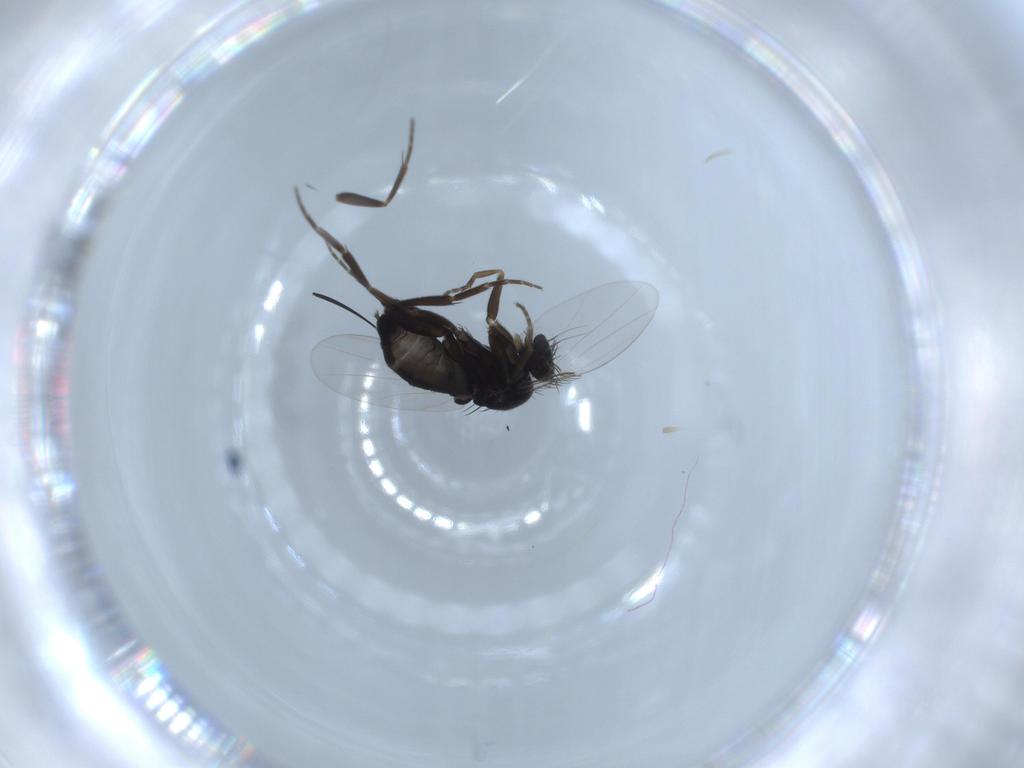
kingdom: Animalia
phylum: Arthropoda
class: Insecta
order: Diptera
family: Phoridae
